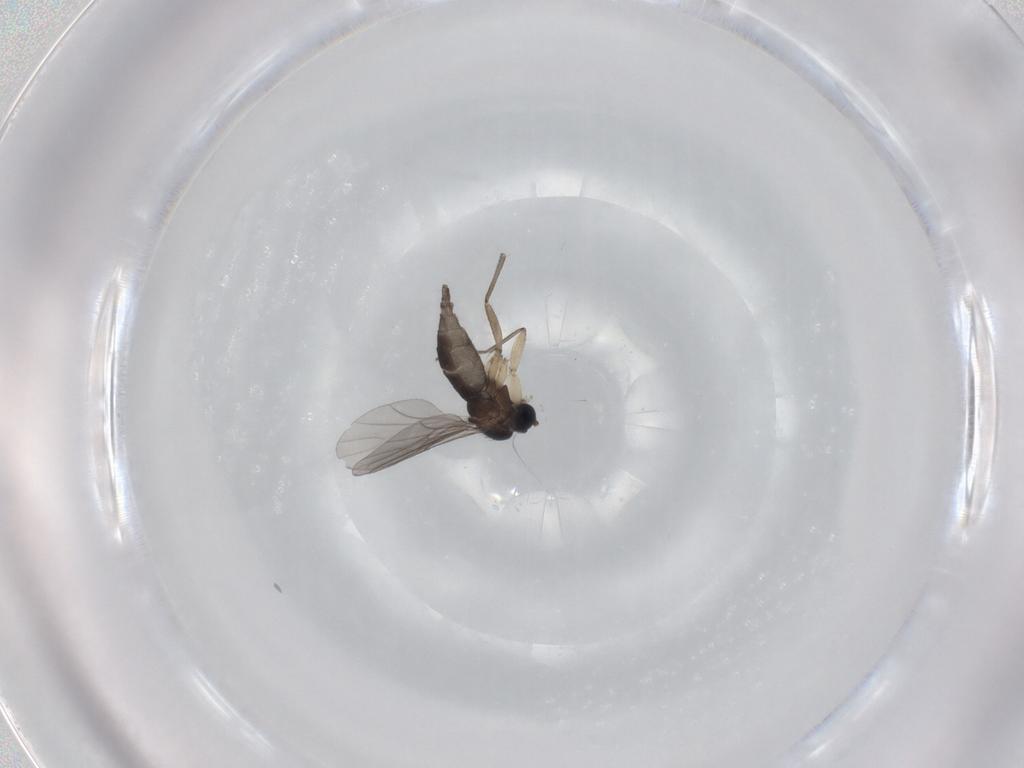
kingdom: Animalia
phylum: Arthropoda
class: Insecta
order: Diptera
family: Sciaridae
